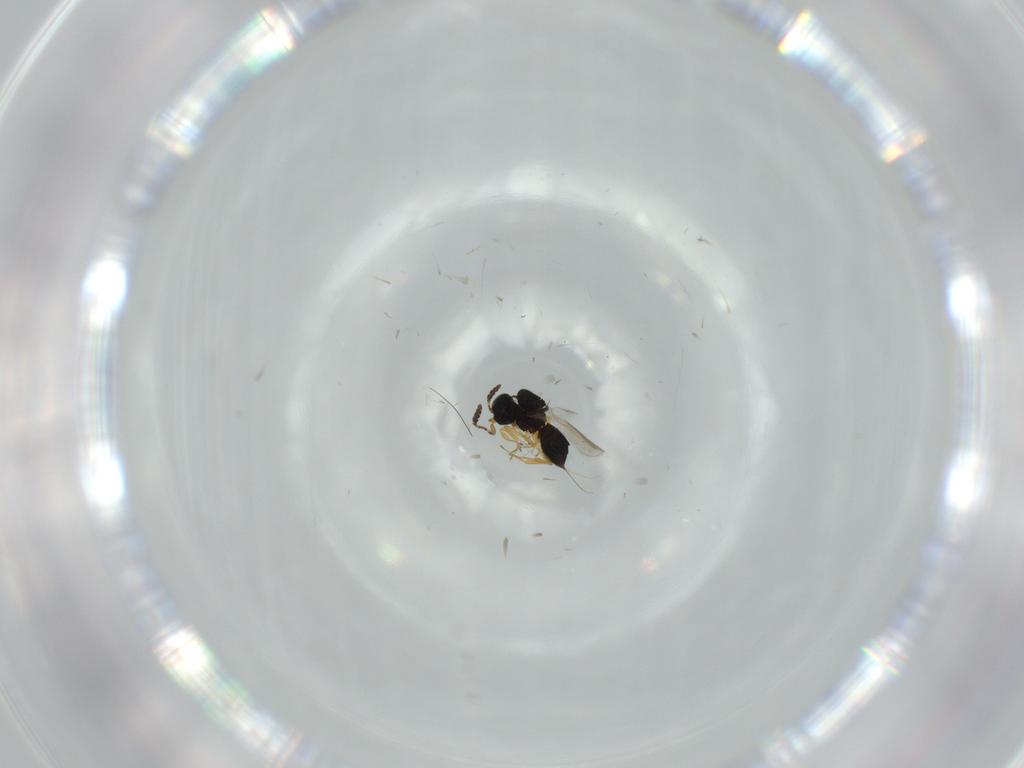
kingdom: Animalia
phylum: Arthropoda
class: Insecta
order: Hymenoptera
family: Scelionidae
